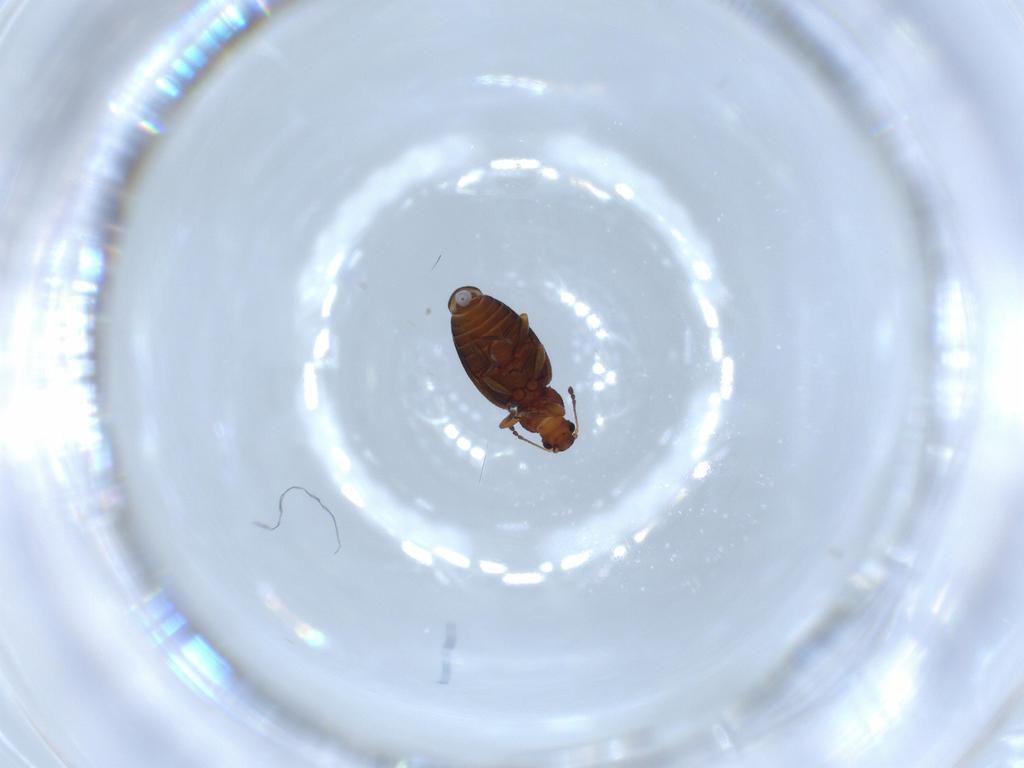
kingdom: Animalia
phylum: Arthropoda
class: Insecta
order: Coleoptera
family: Latridiidae
